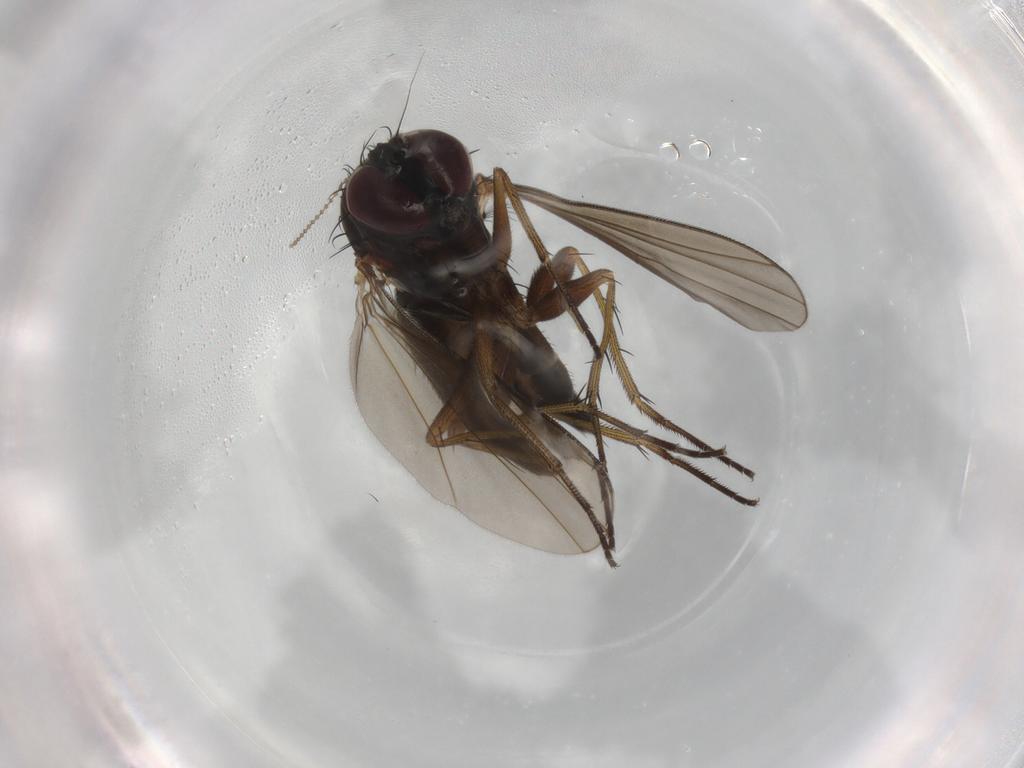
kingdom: Animalia
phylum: Arthropoda
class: Insecta
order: Diptera
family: Dolichopodidae
